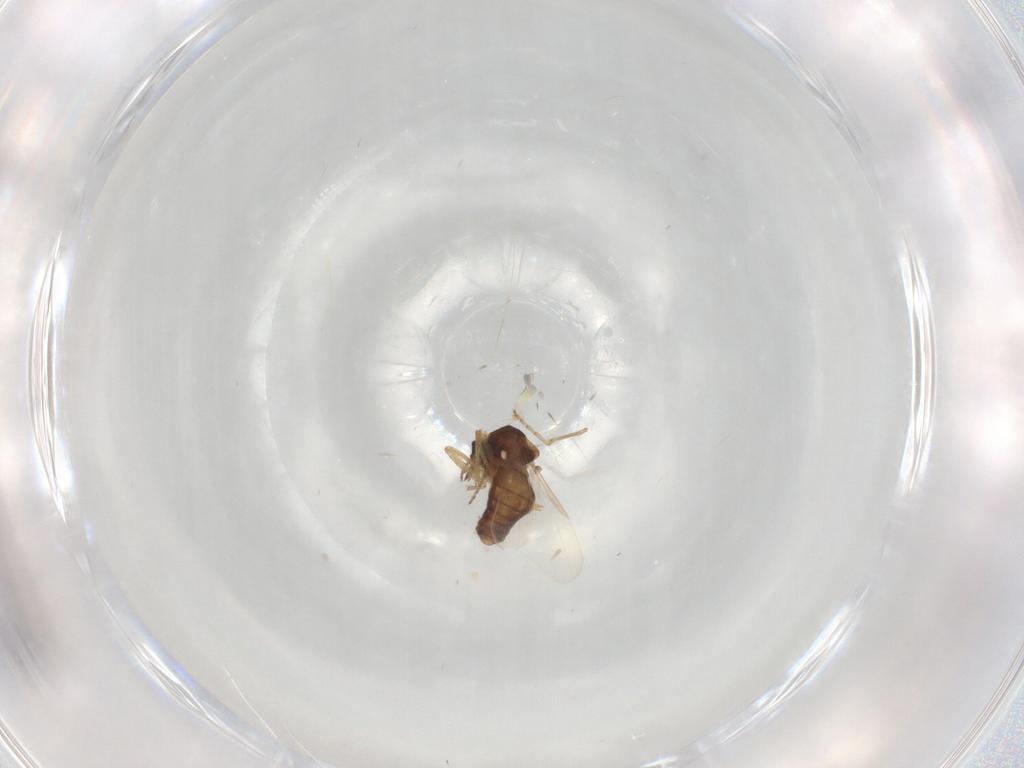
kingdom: Animalia
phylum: Arthropoda
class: Insecta
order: Diptera
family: Ceratopogonidae
